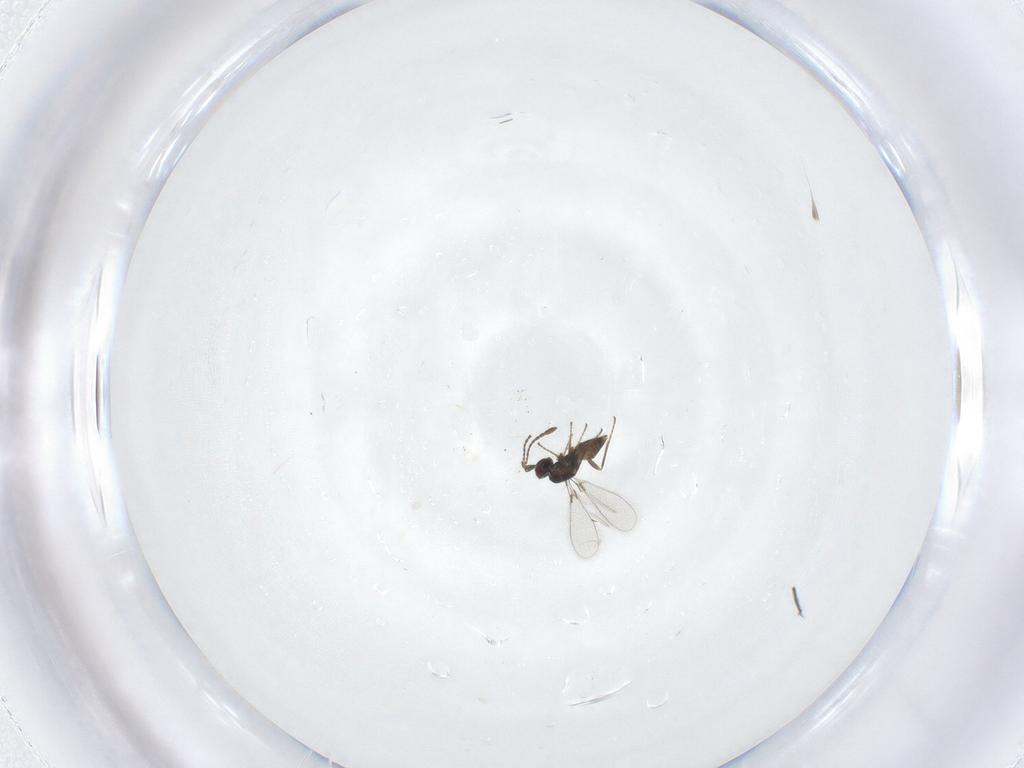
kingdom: Animalia
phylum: Arthropoda
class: Insecta
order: Hymenoptera
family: Mymaridae
